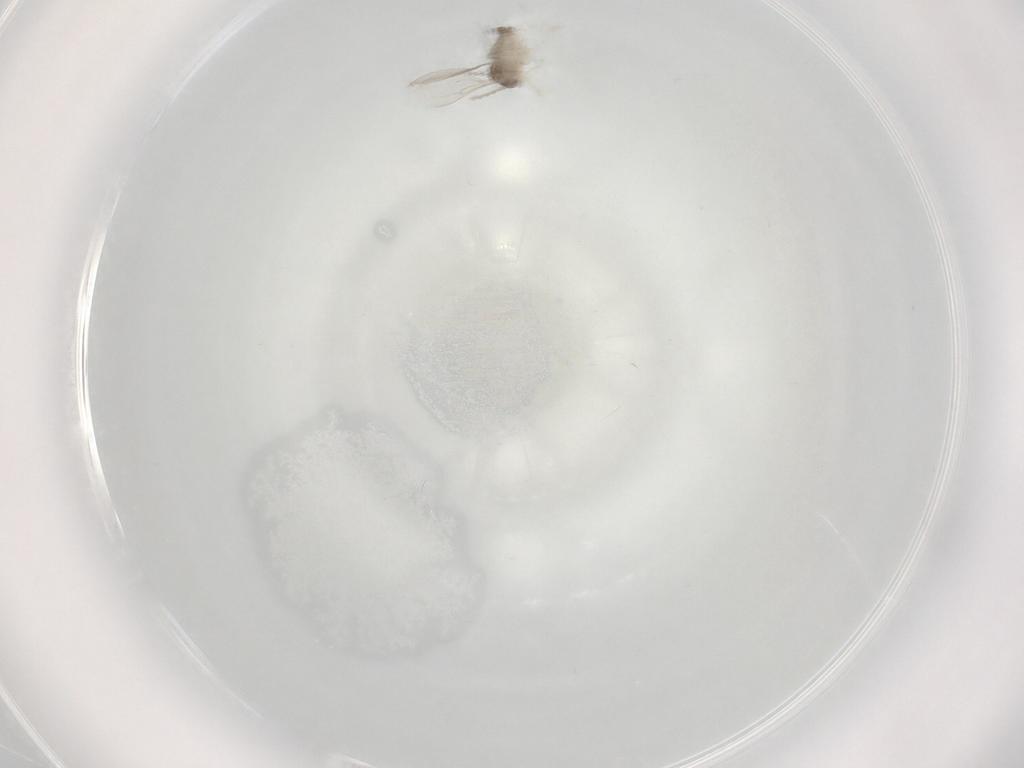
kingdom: Animalia
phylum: Arthropoda
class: Insecta
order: Diptera
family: Cecidomyiidae
